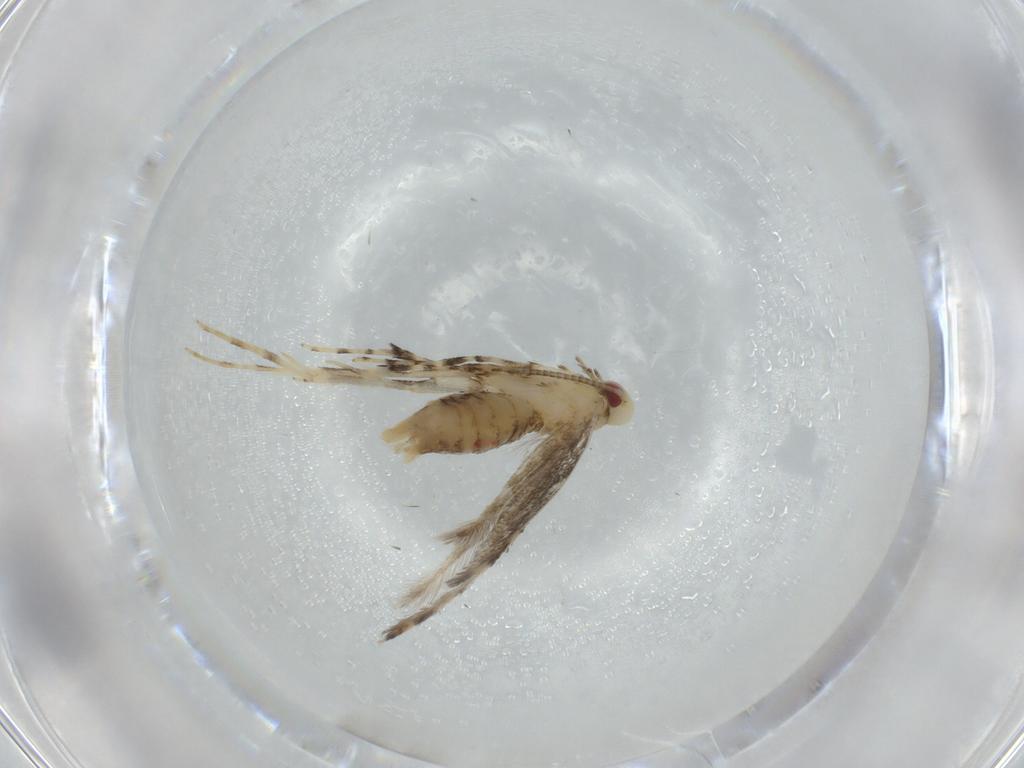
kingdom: Animalia
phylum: Arthropoda
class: Insecta
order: Lepidoptera
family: Gracillariidae
